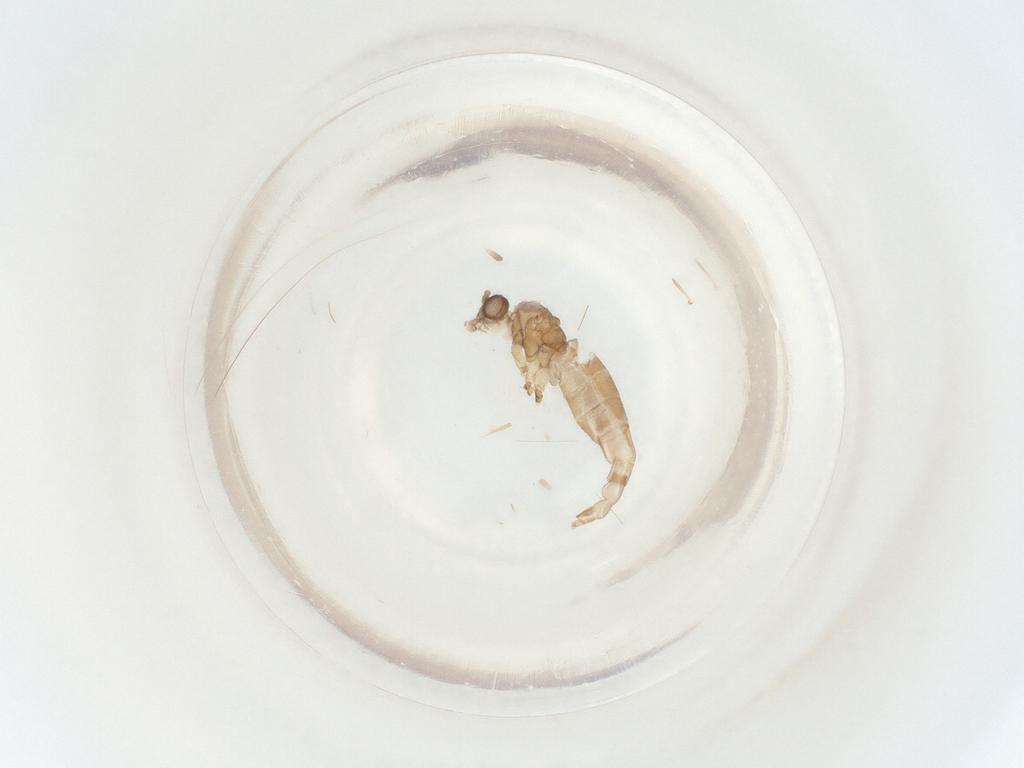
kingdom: Animalia
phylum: Arthropoda
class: Insecta
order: Diptera
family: Sciaridae
